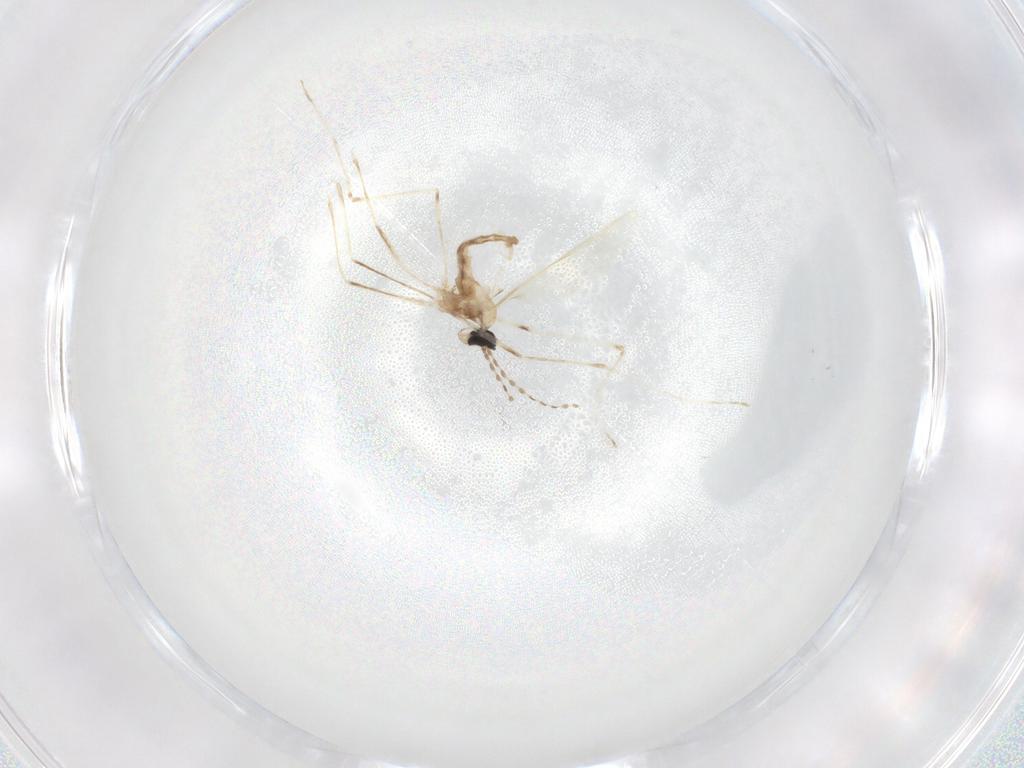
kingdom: Animalia
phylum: Arthropoda
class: Insecta
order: Diptera
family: Cecidomyiidae
